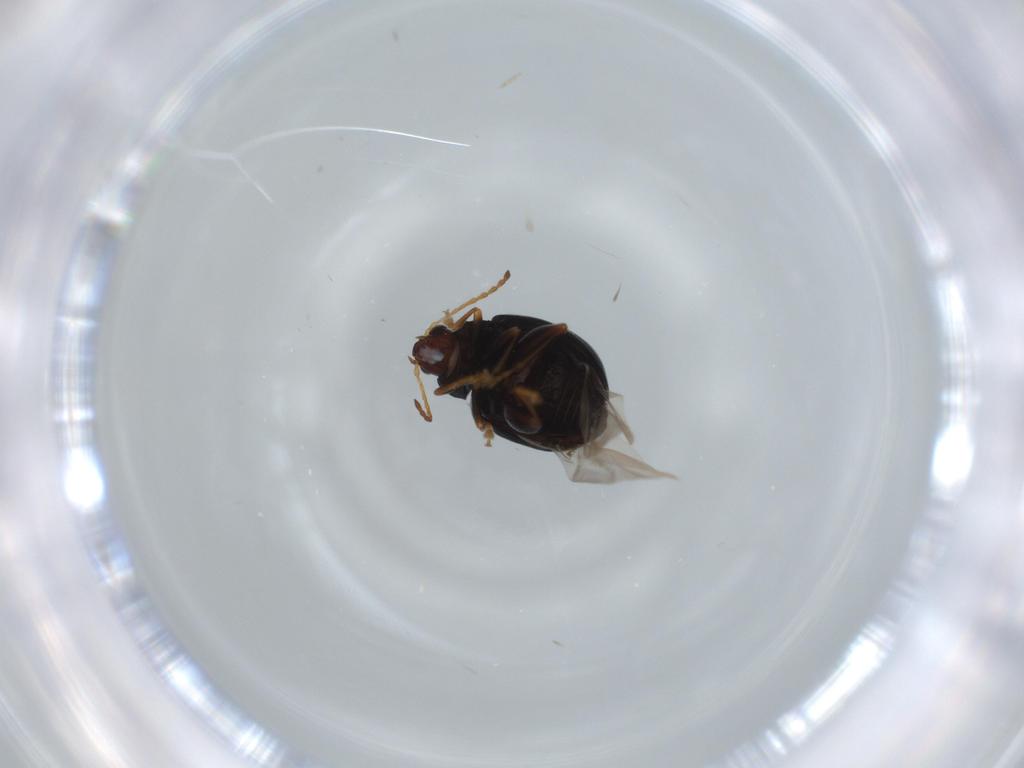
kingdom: Animalia
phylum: Arthropoda
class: Insecta
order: Coleoptera
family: Chrysomelidae
